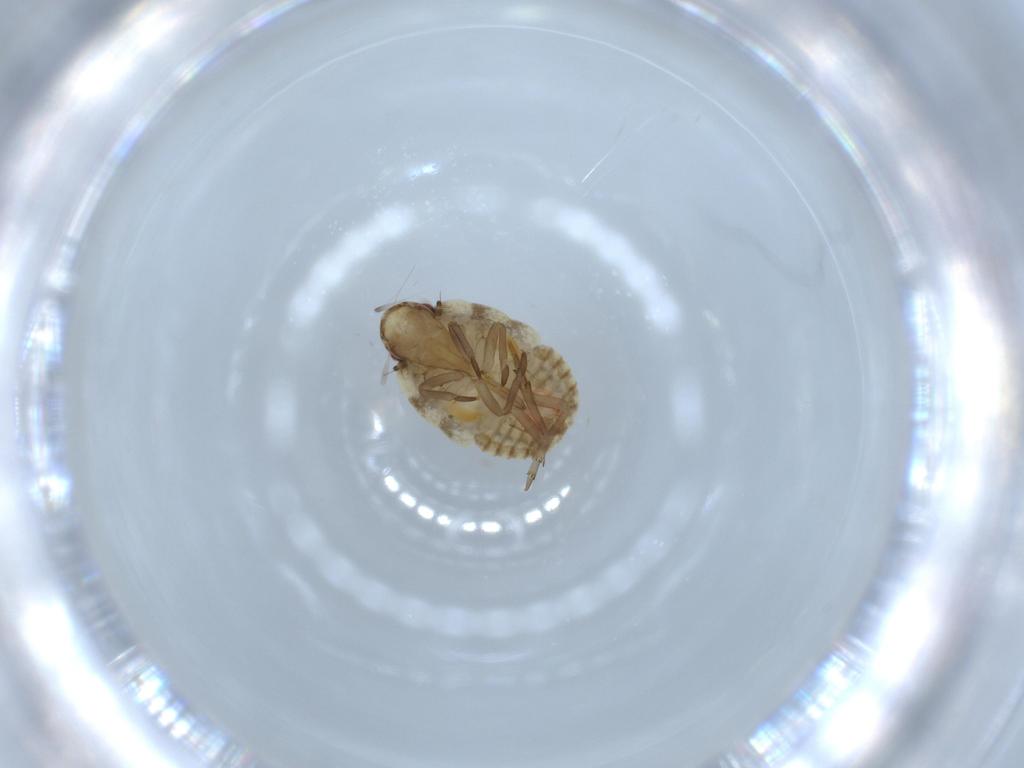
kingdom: Animalia
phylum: Arthropoda
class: Insecta
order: Hemiptera
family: Flatidae
